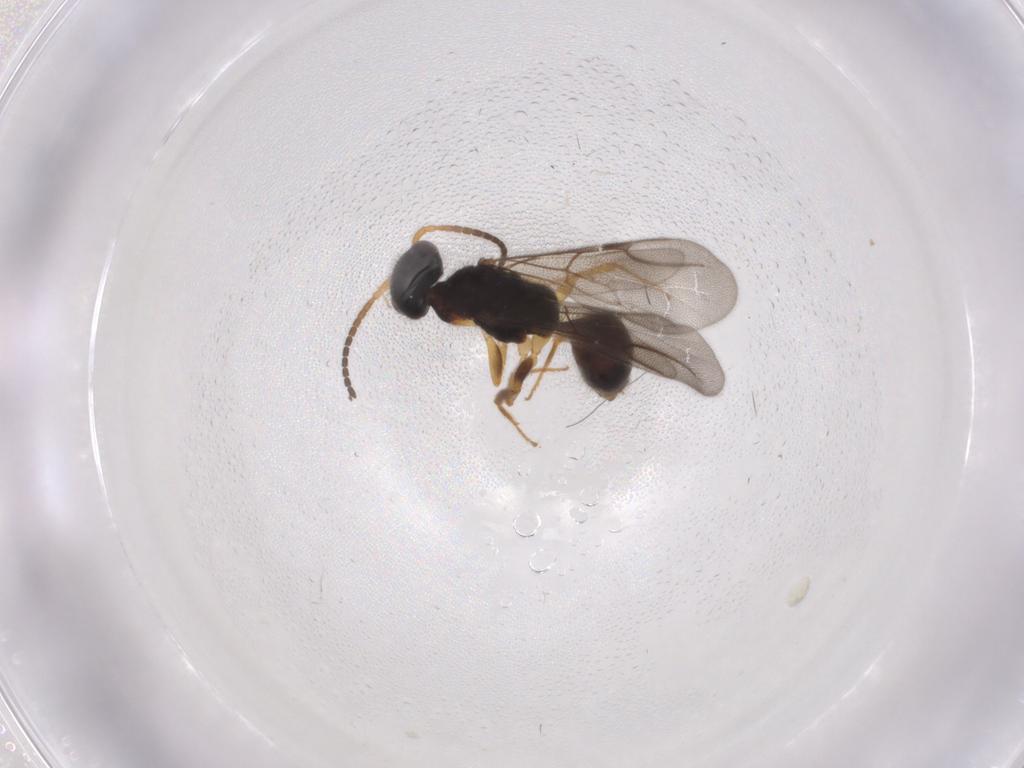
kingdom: Animalia
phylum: Arthropoda
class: Insecta
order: Hymenoptera
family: Bethylidae
